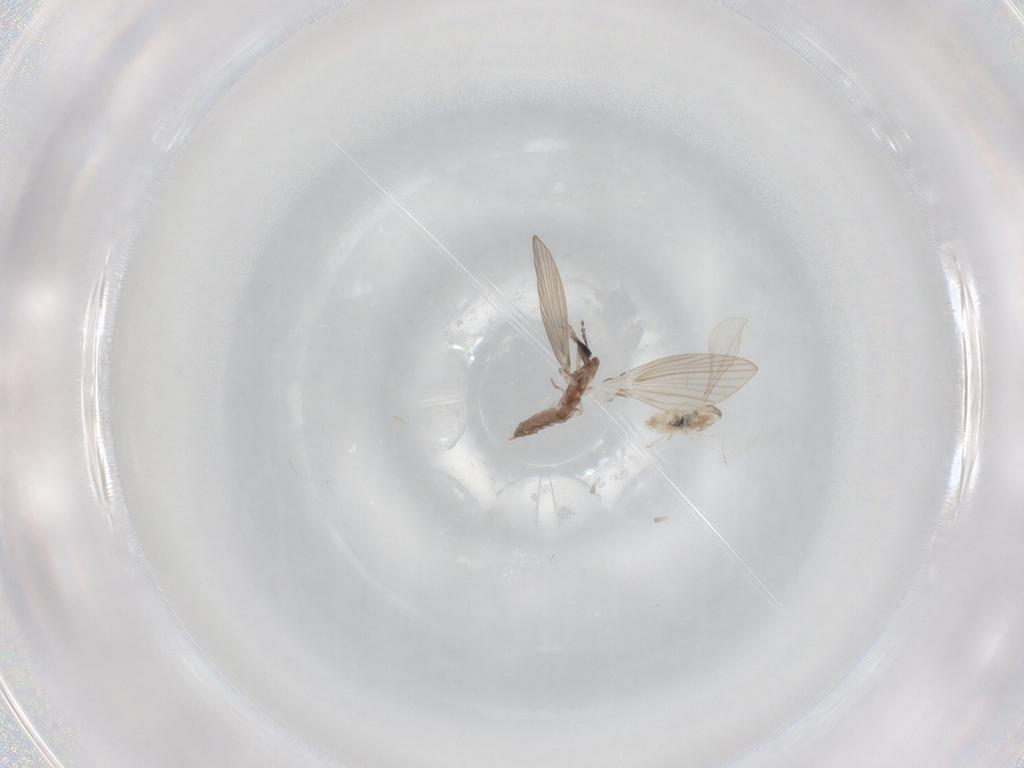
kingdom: Animalia
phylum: Arthropoda
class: Insecta
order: Diptera
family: Psychodidae
